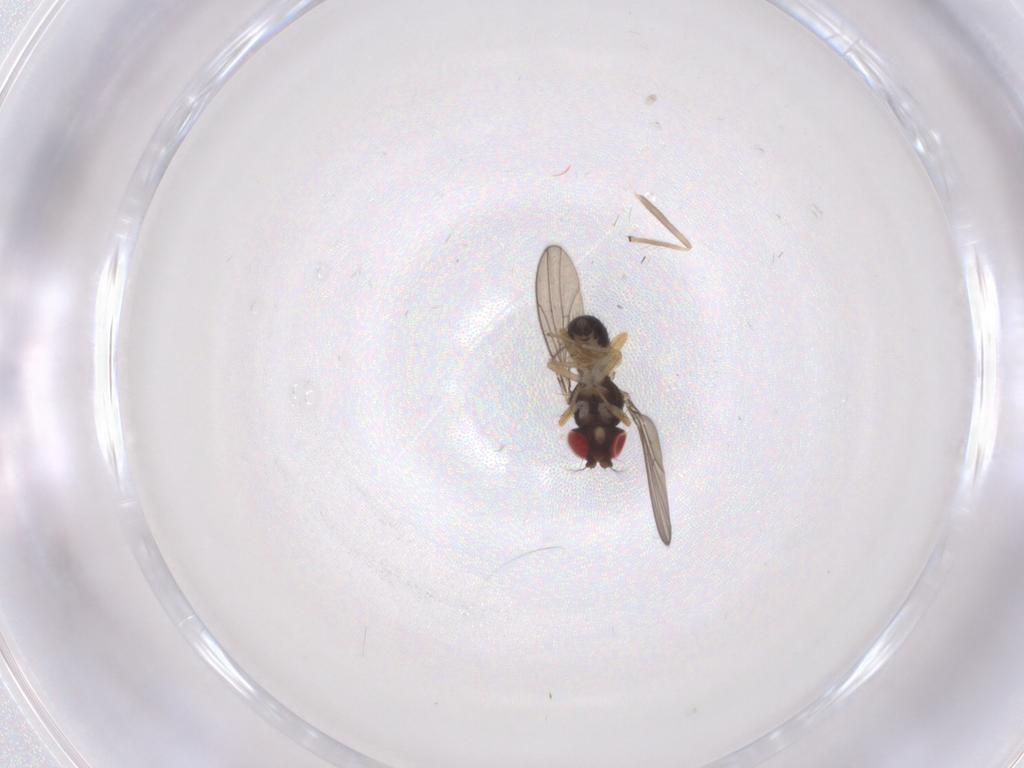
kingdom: Animalia
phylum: Arthropoda
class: Insecta
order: Diptera
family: Drosophilidae
